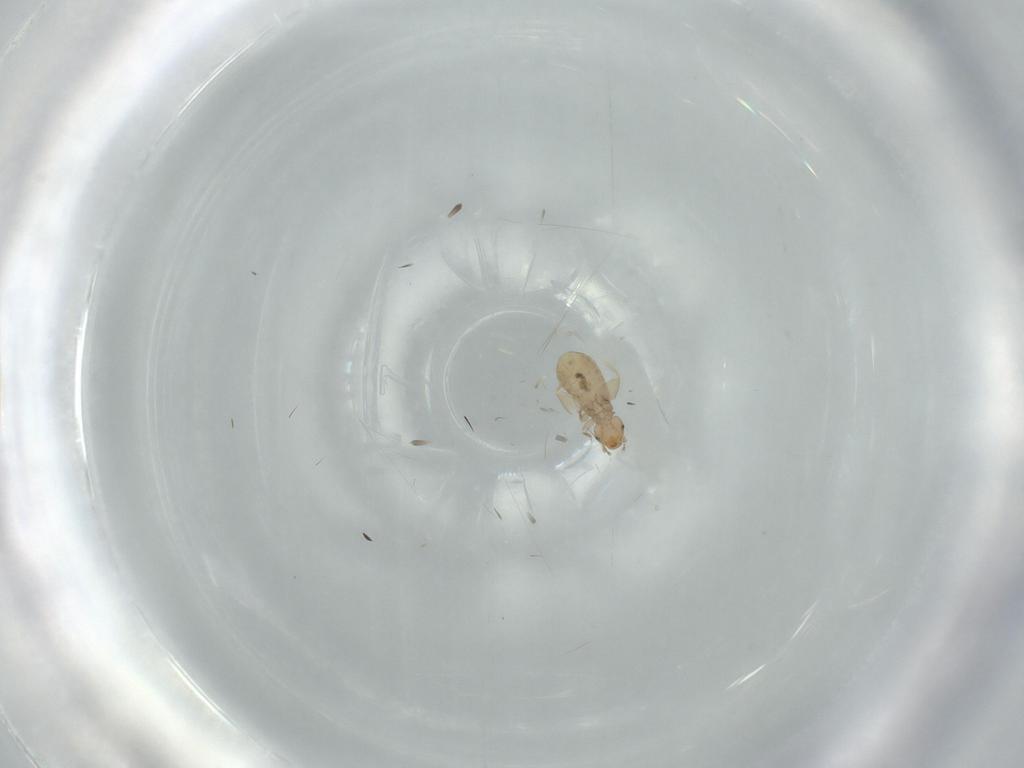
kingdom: Animalia
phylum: Arthropoda
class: Insecta
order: Psocodea
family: Liposcelididae
